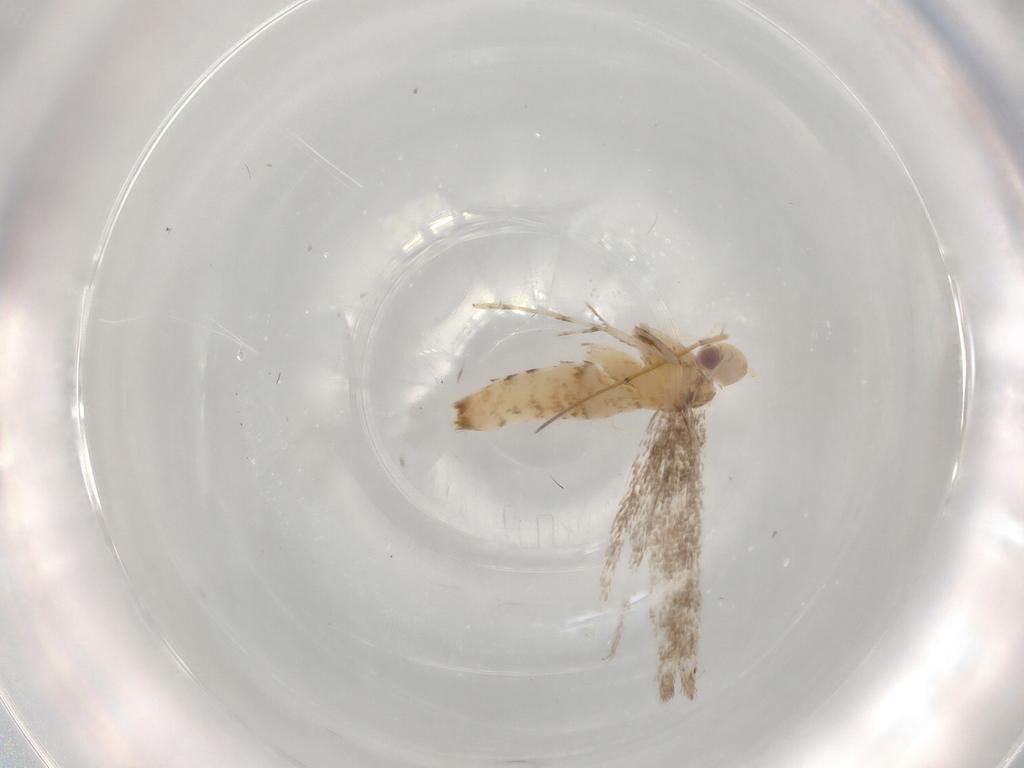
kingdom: Animalia
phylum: Arthropoda
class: Insecta
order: Lepidoptera
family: Gracillariidae
